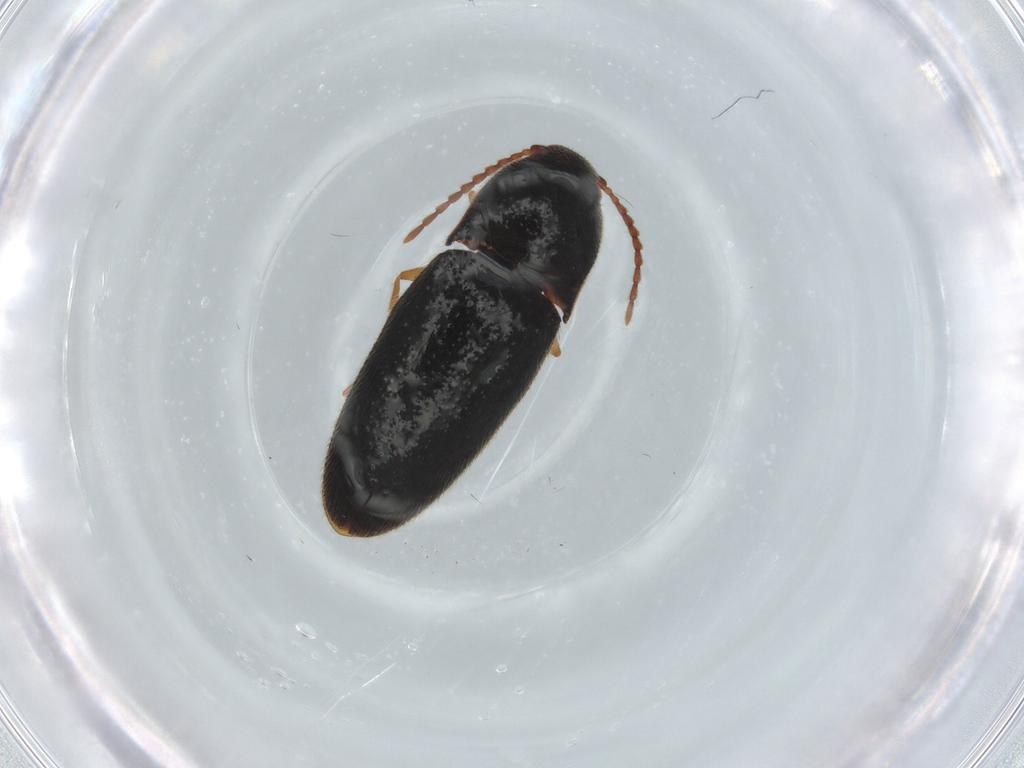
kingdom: Animalia
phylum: Arthropoda
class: Insecta
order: Coleoptera
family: Elateridae
